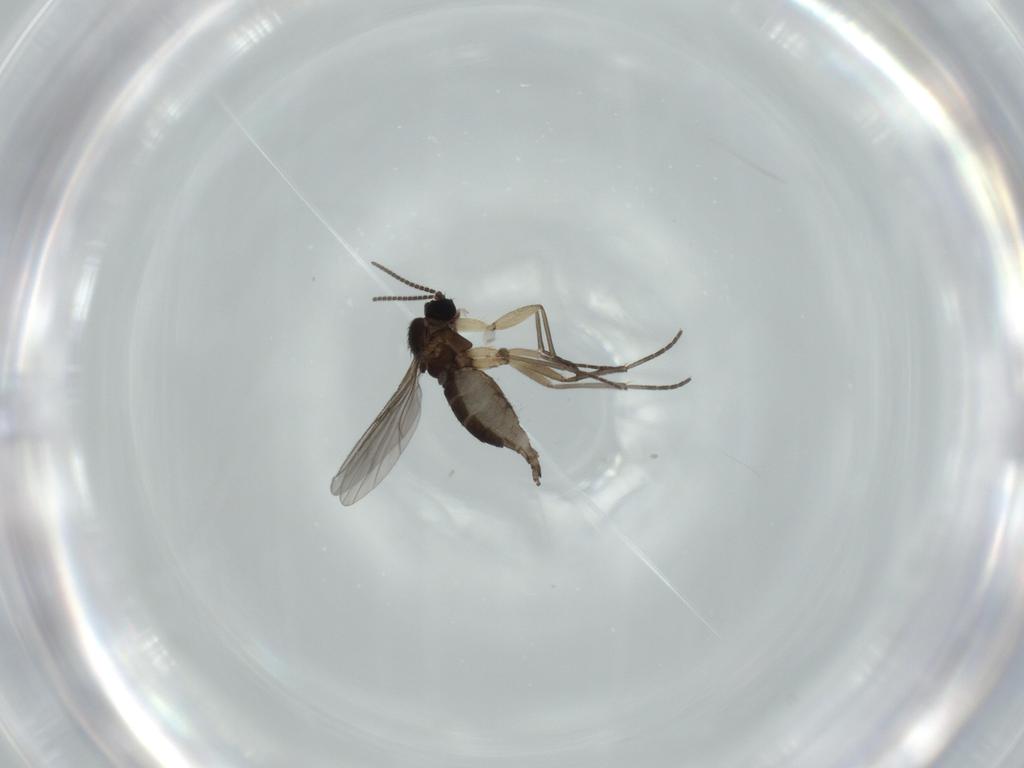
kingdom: Animalia
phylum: Arthropoda
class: Insecta
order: Diptera
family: Sciaridae
